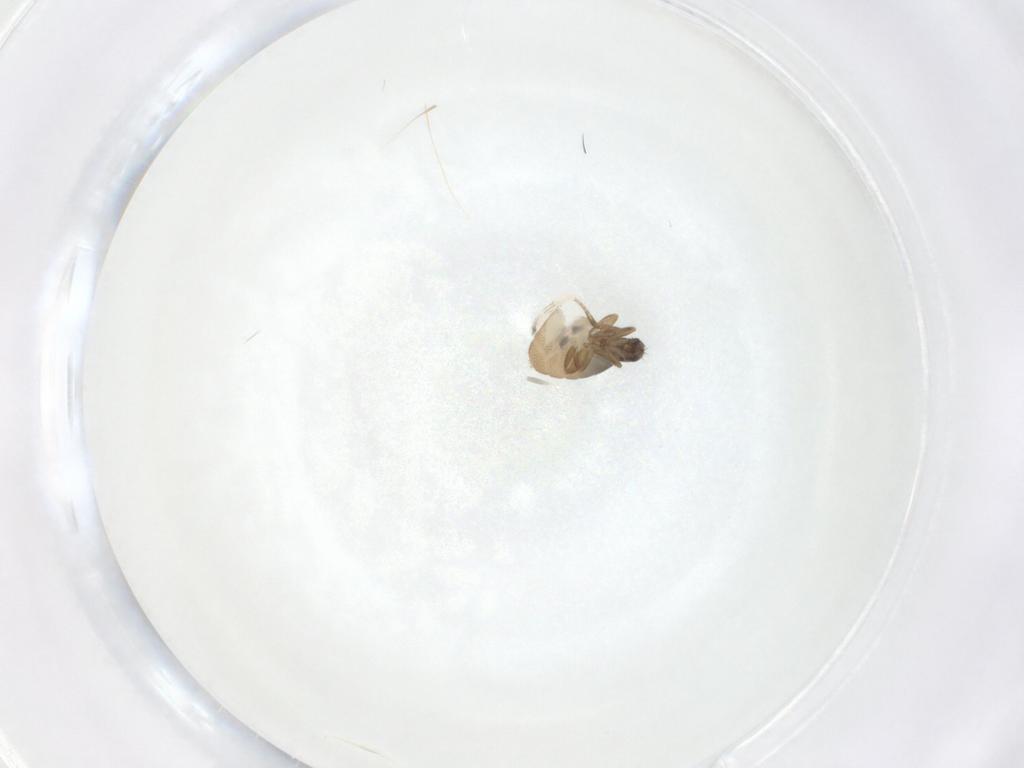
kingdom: Animalia
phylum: Arthropoda
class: Insecta
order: Diptera
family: Phoridae
